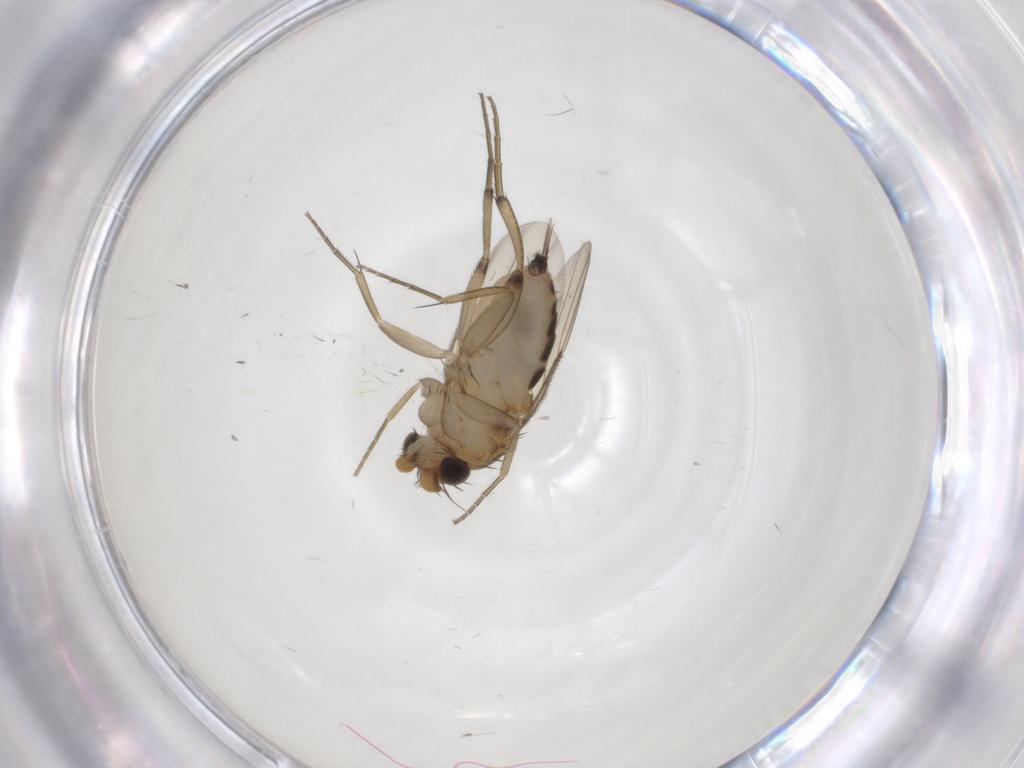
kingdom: Animalia
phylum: Arthropoda
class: Insecta
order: Diptera
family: Phoridae
